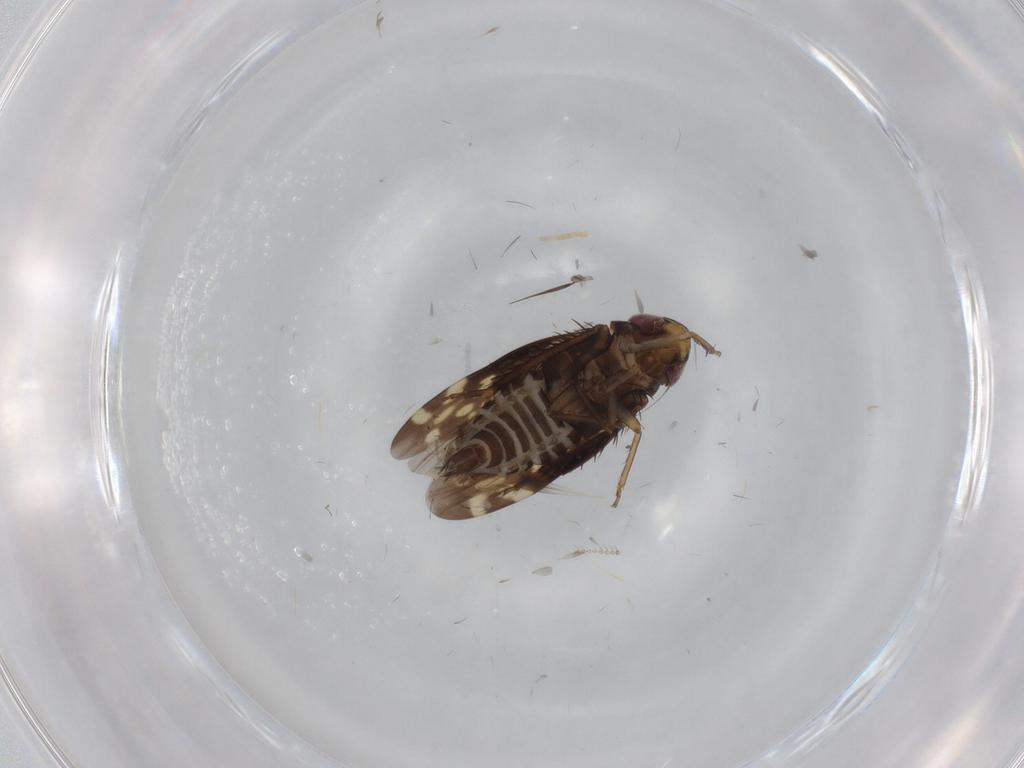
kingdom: Animalia
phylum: Arthropoda
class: Insecta
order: Hemiptera
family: Cicadellidae
